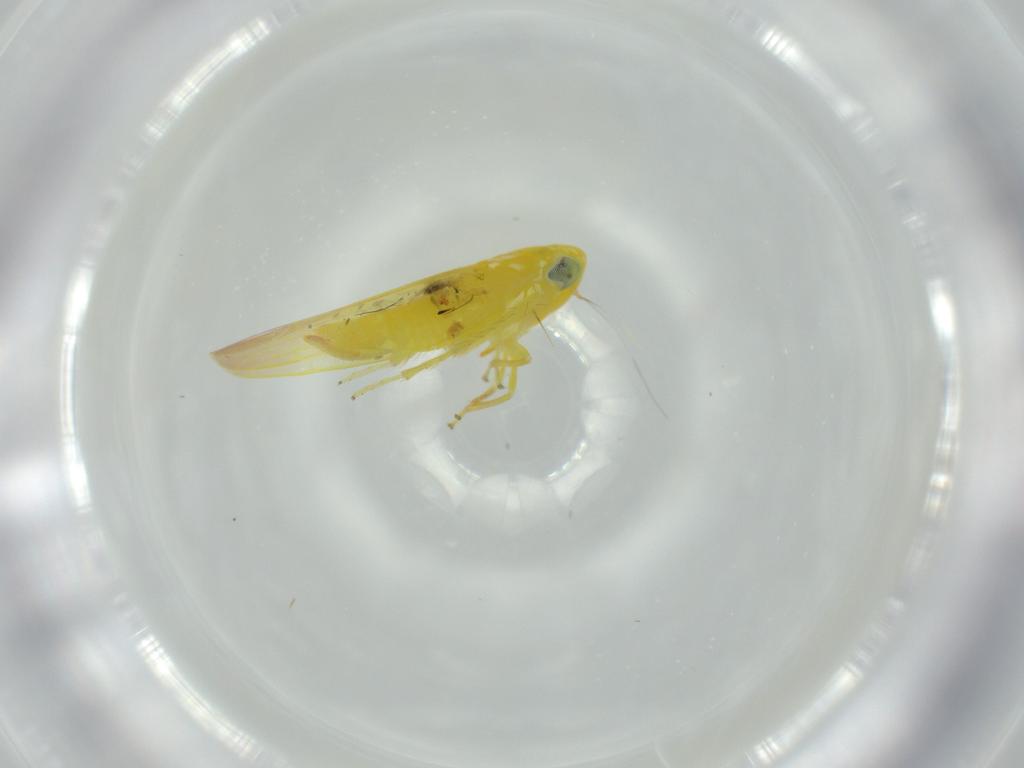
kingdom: Animalia
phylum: Arthropoda
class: Insecta
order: Hemiptera
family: Cicadellidae
